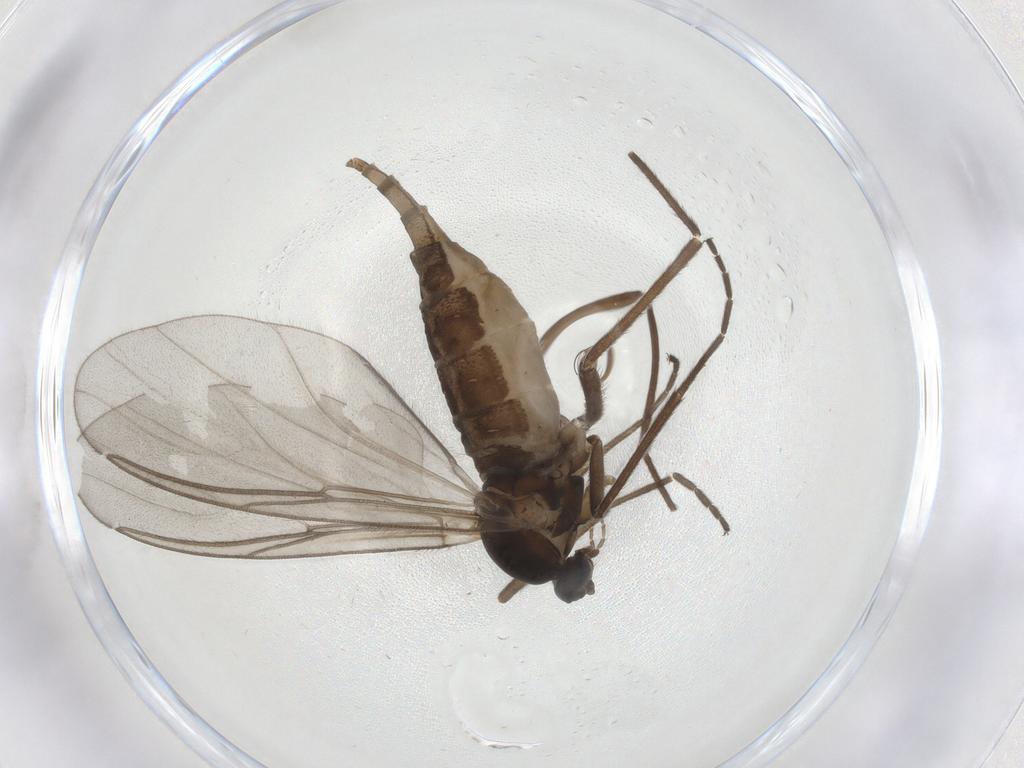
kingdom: Animalia
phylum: Arthropoda
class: Insecta
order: Diptera
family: Cecidomyiidae
